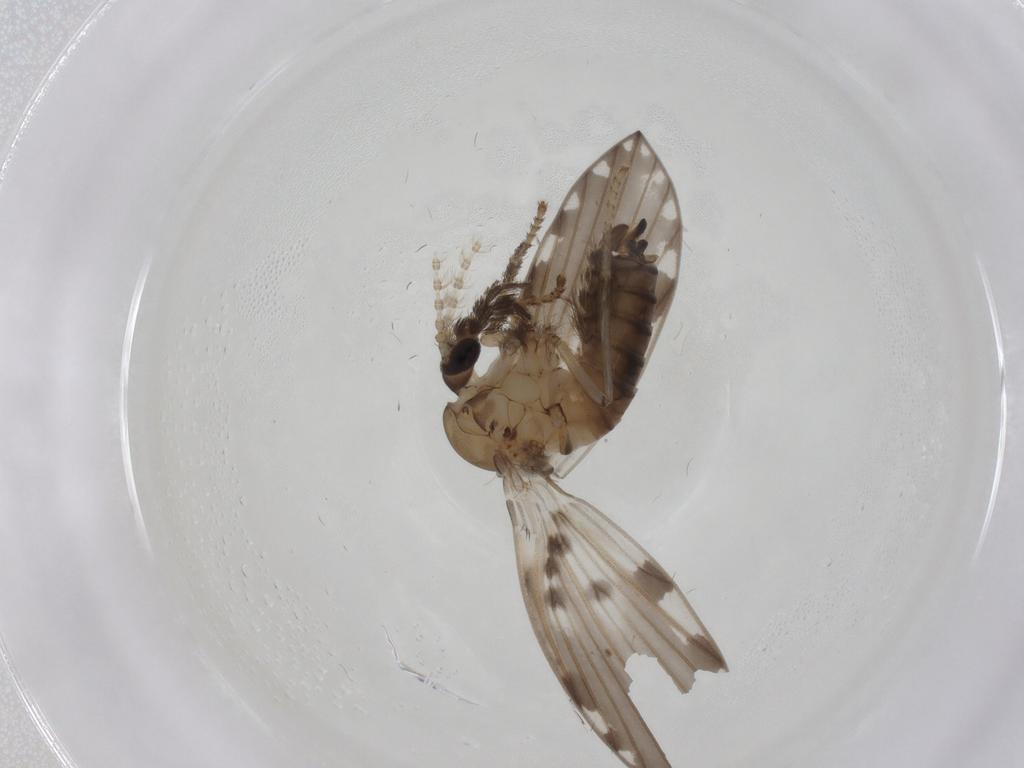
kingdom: Animalia
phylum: Arthropoda
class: Insecta
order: Diptera
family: Psychodidae
